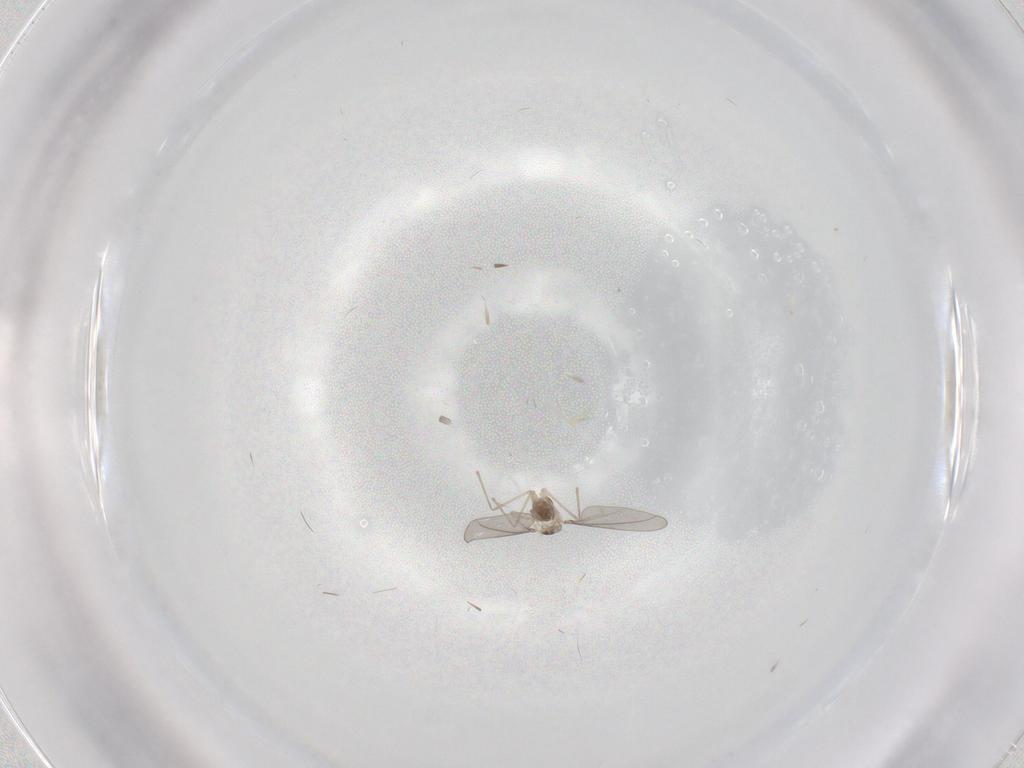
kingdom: Animalia
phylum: Arthropoda
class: Insecta
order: Diptera
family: Cecidomyiidae
